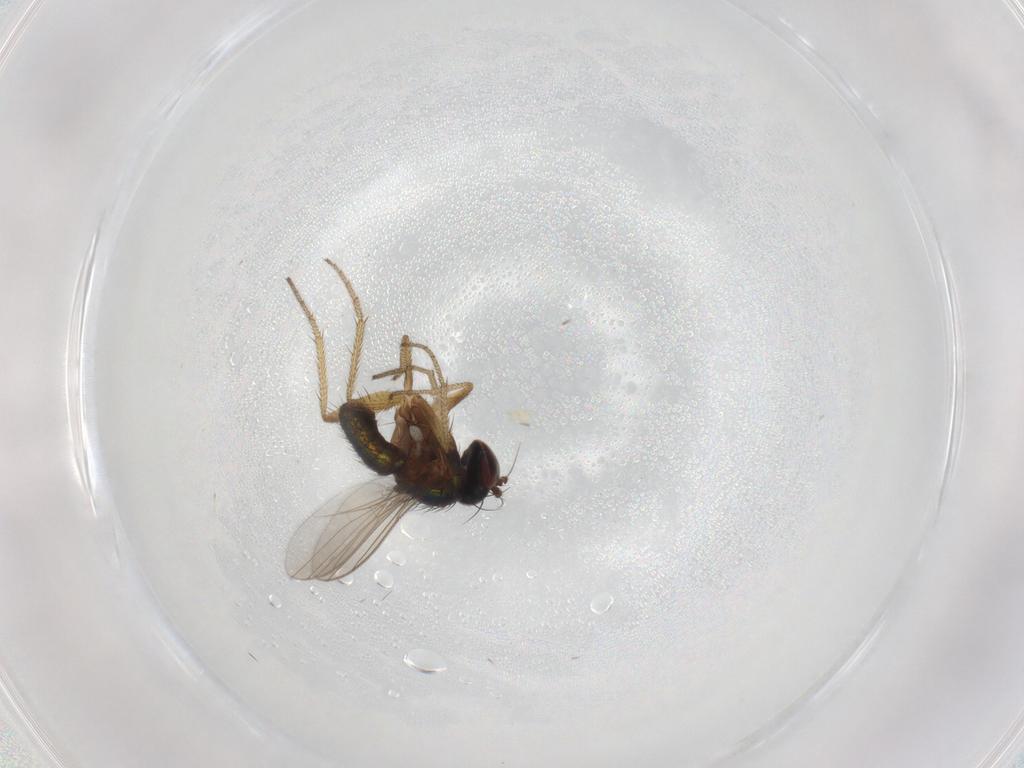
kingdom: Animalia
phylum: Arthropoda
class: Insecta
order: Diptera
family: Dolichopodidae
